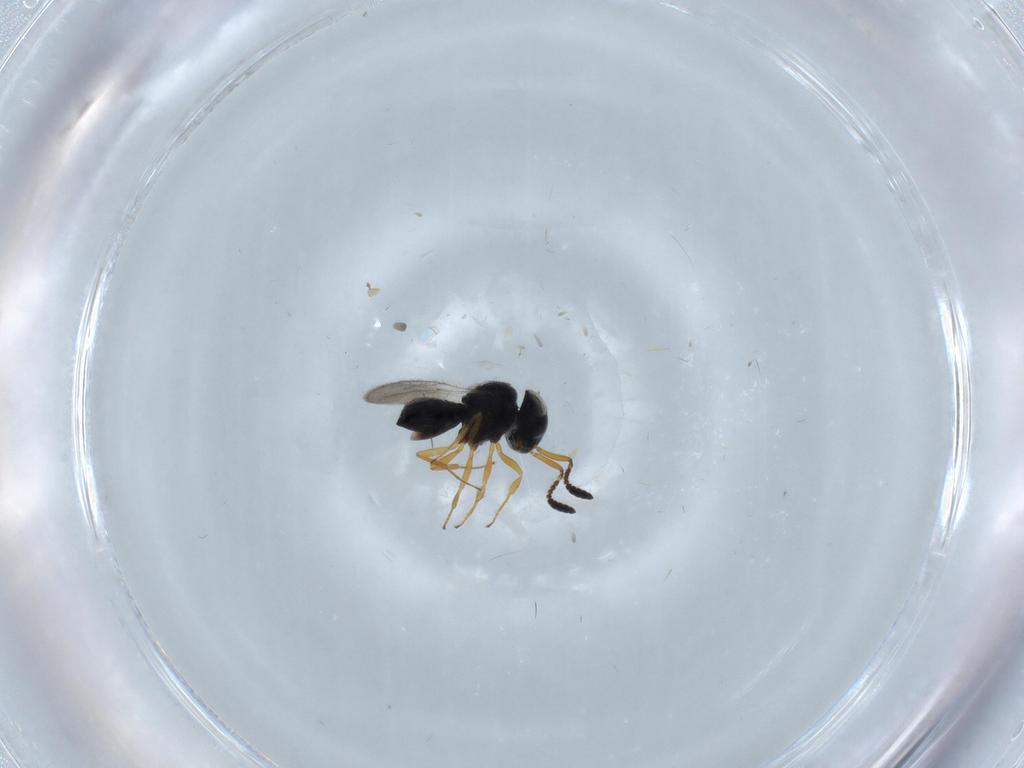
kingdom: Animalia
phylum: Arthropoda
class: Insecta
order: Hymenoptera
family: Scelionidae
